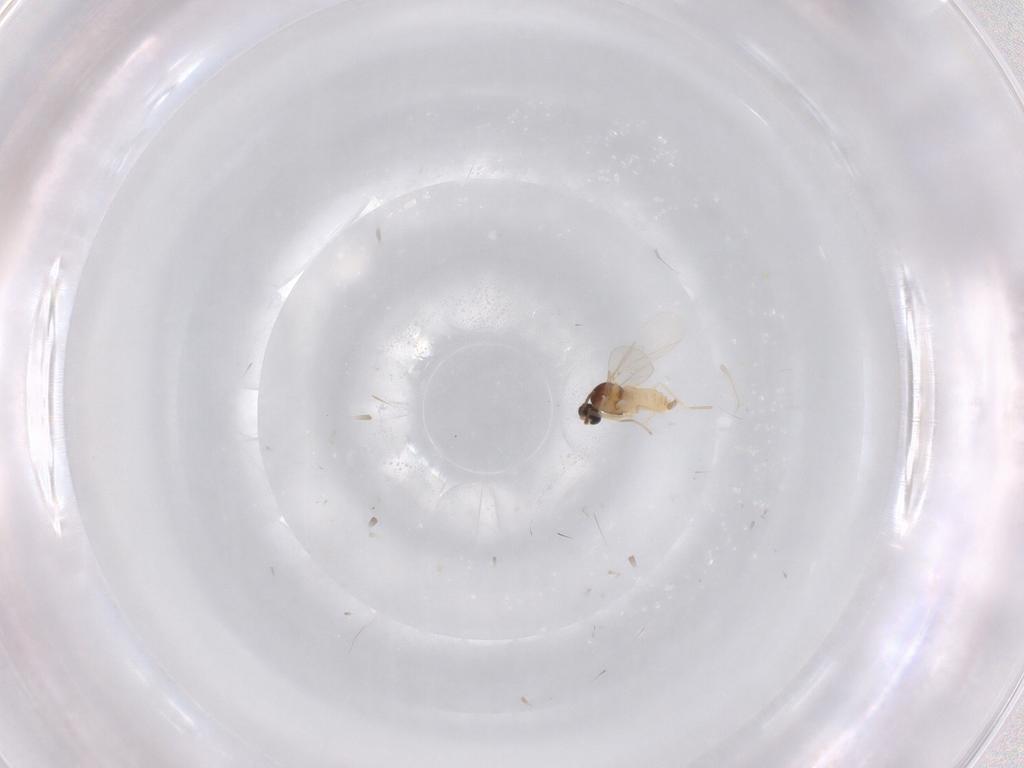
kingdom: Animalia
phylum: Arthropoda
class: Insecta
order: Diptera
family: Cecidomyiidae
